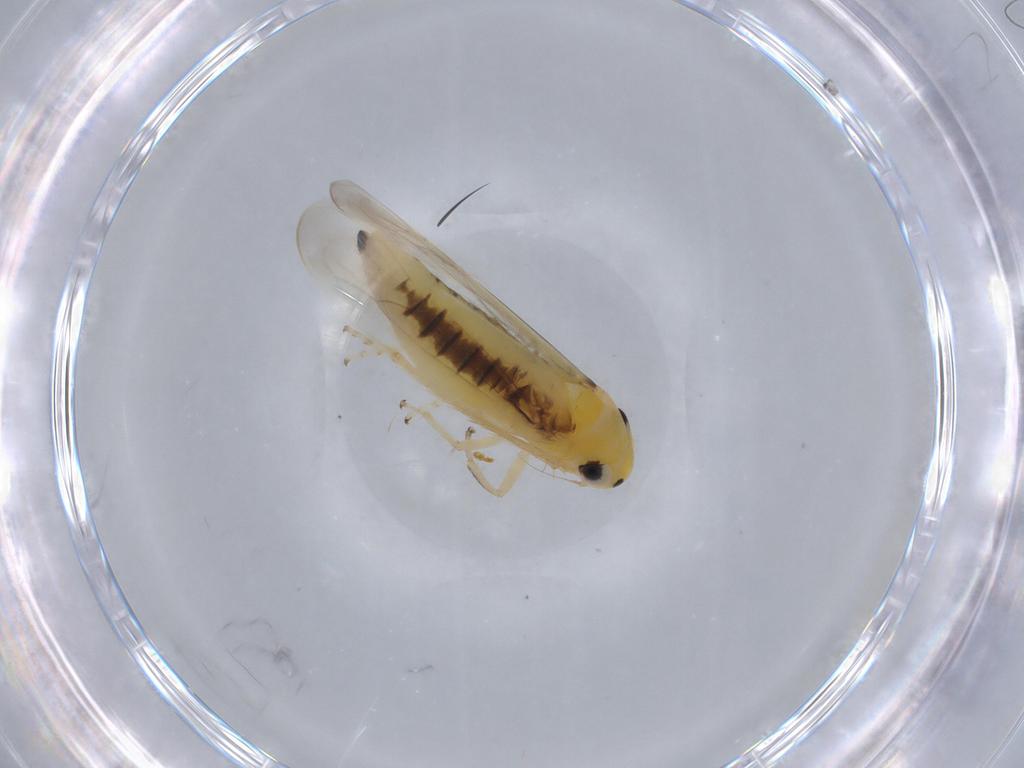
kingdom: Animalia
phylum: Arthropoda
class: Insecta
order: Hemiptera
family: Cicadellidae
